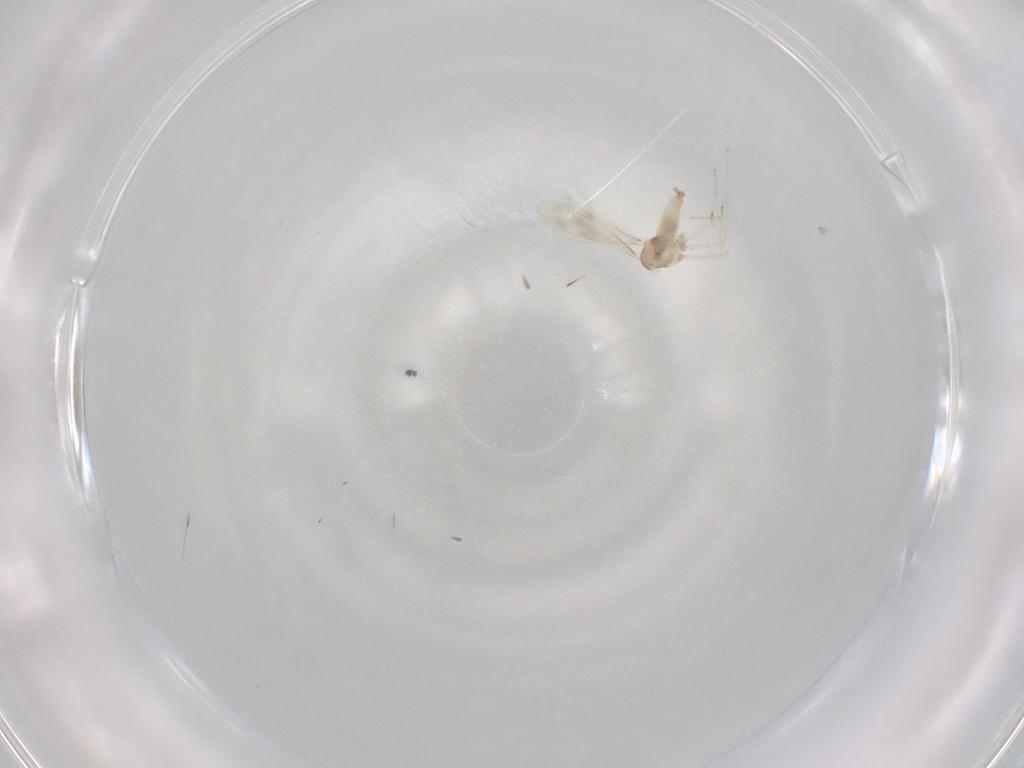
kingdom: Animalia
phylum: Arthropoda
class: Insecta
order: Diptera
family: Cecidomyiidae
